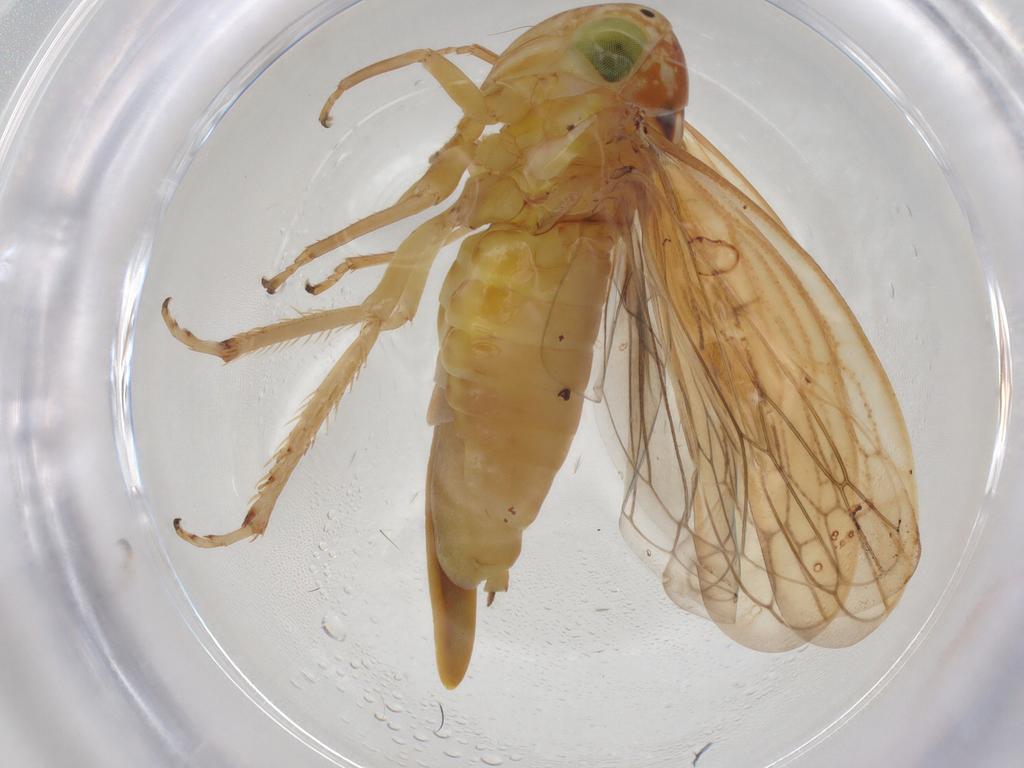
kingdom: Animalia
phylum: Arthropoda
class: Insecta
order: Hemiptera
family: Cicadellidae
